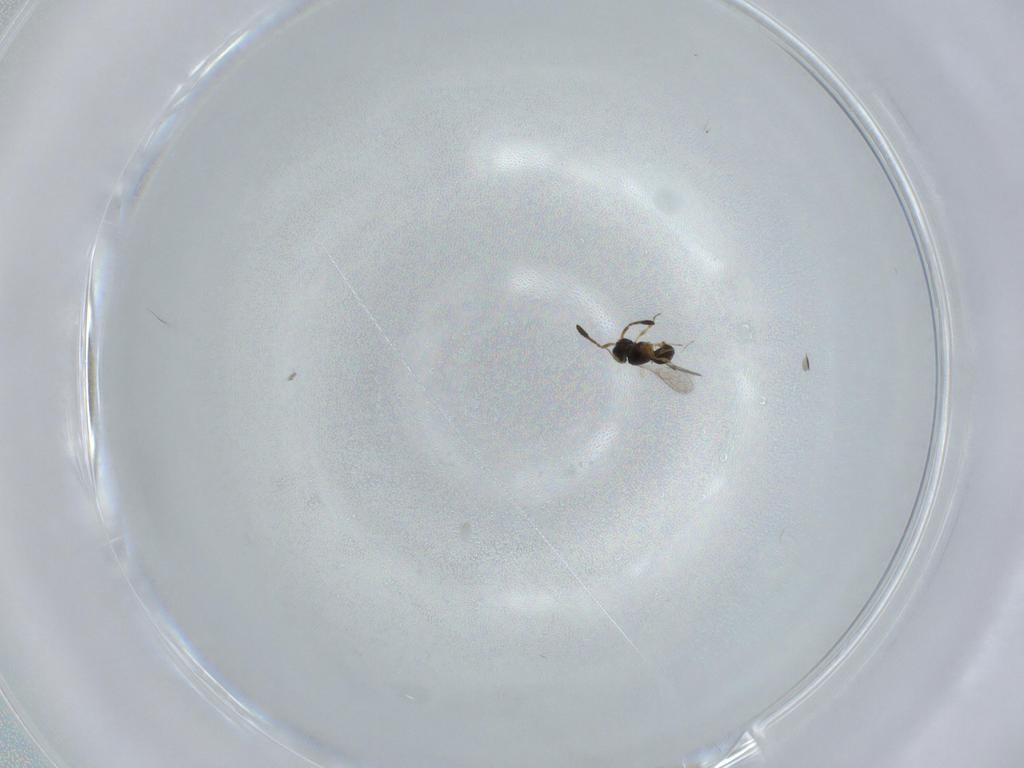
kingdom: Animalia
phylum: Arthropoda
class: Insecta
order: Hymenoptera
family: Scelionidae
